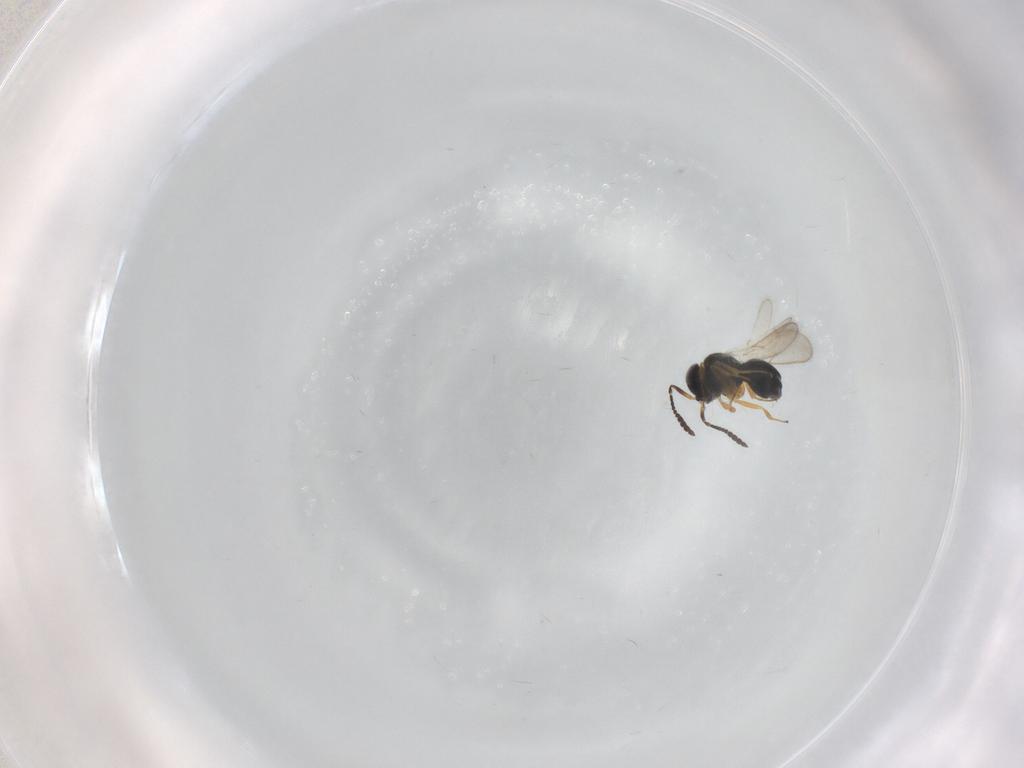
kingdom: Animalia
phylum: Arthropoda
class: Insecta
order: Hymenoptera
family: Scelionidae
